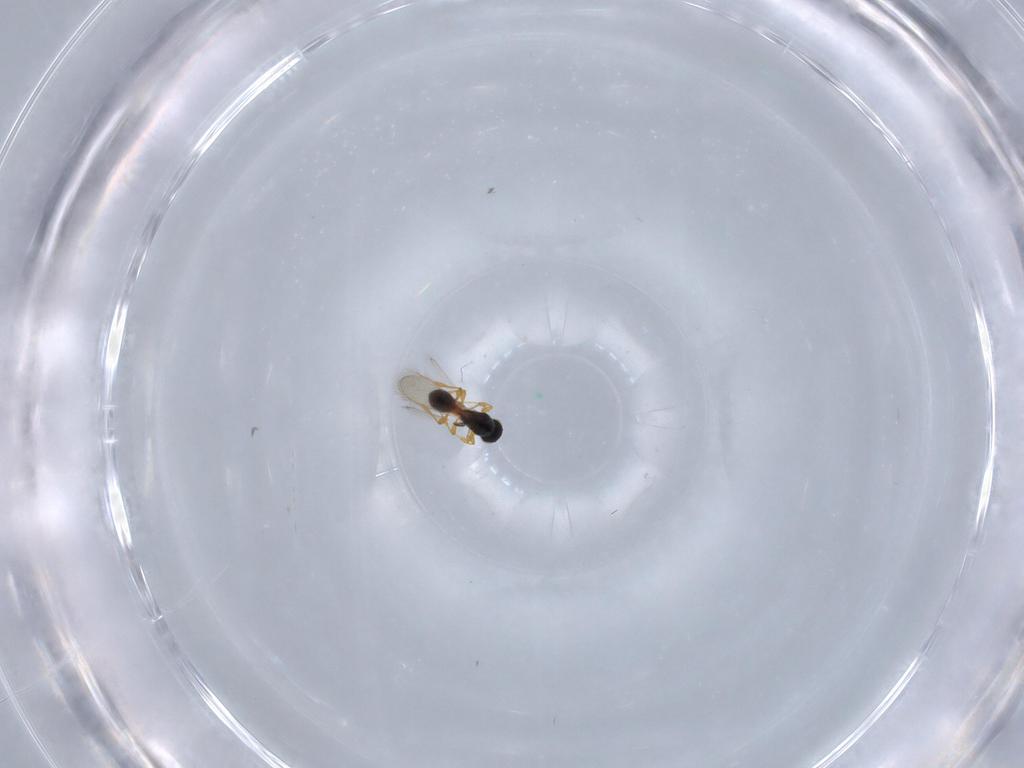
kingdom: Animalia
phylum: Arthropoda
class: Insecta
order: Hymenoptera
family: Platygastridae
